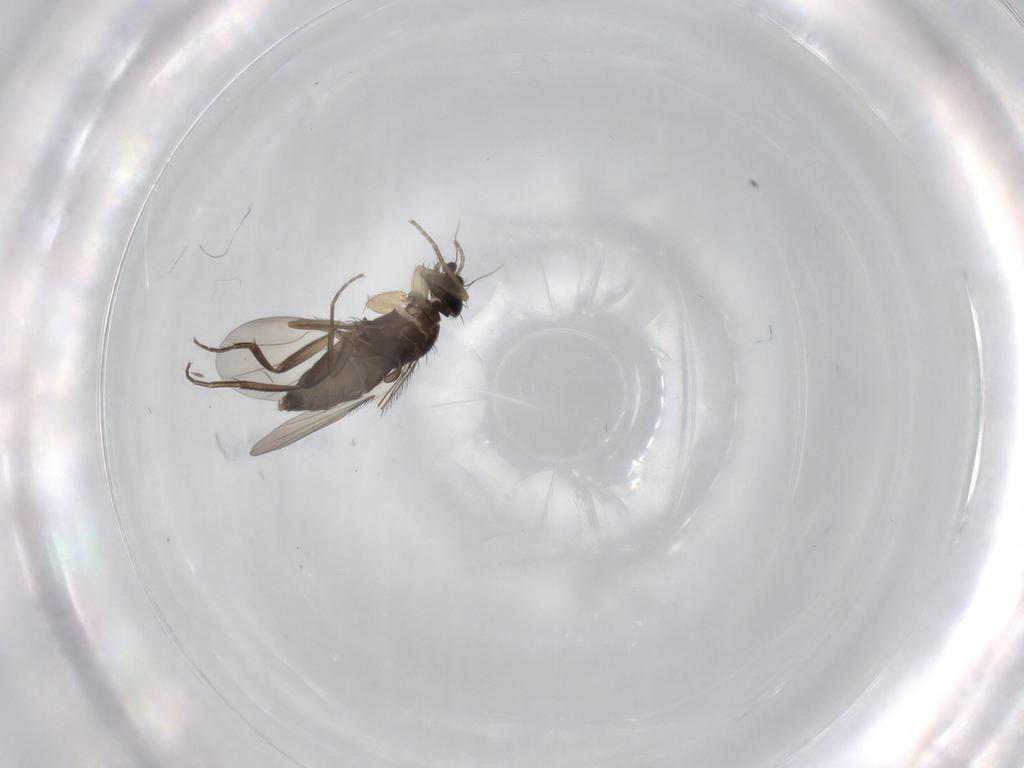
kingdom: Animalia
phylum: Arthropoda
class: Insecta
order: Diptera
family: Phoridae
